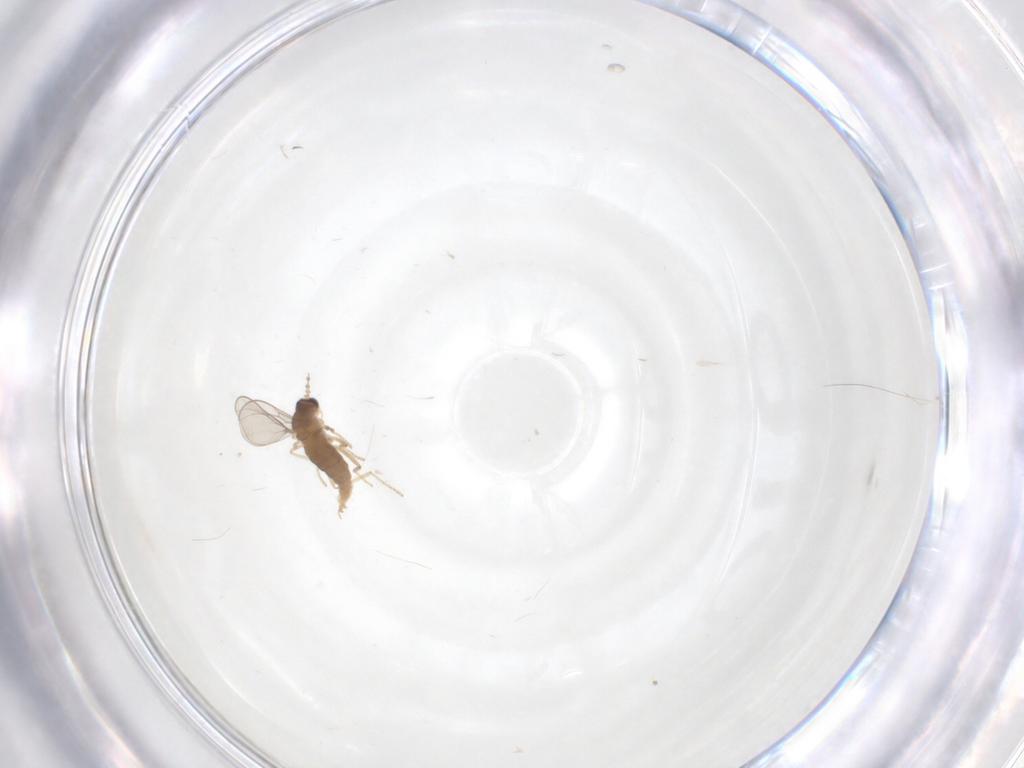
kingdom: Animalia
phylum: Arthropoda
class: Insecta
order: Diptera
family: Cecidomyiidae
